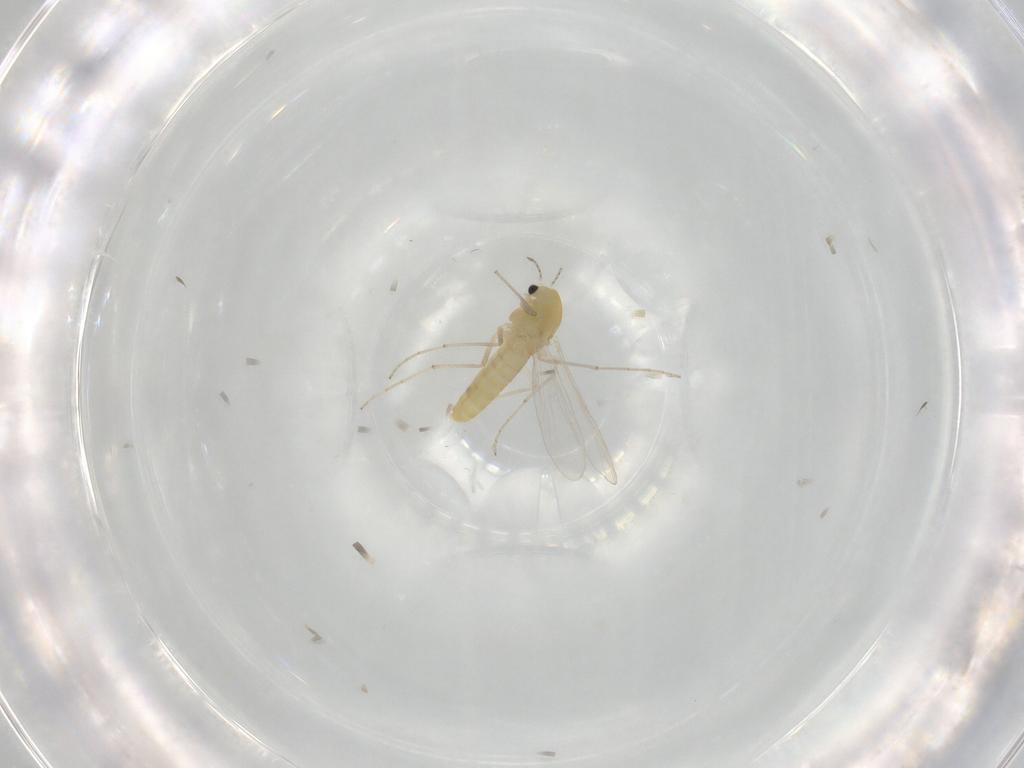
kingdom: Animalia
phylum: Arthropoda
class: Insecta
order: Diptera
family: Chironomidae
